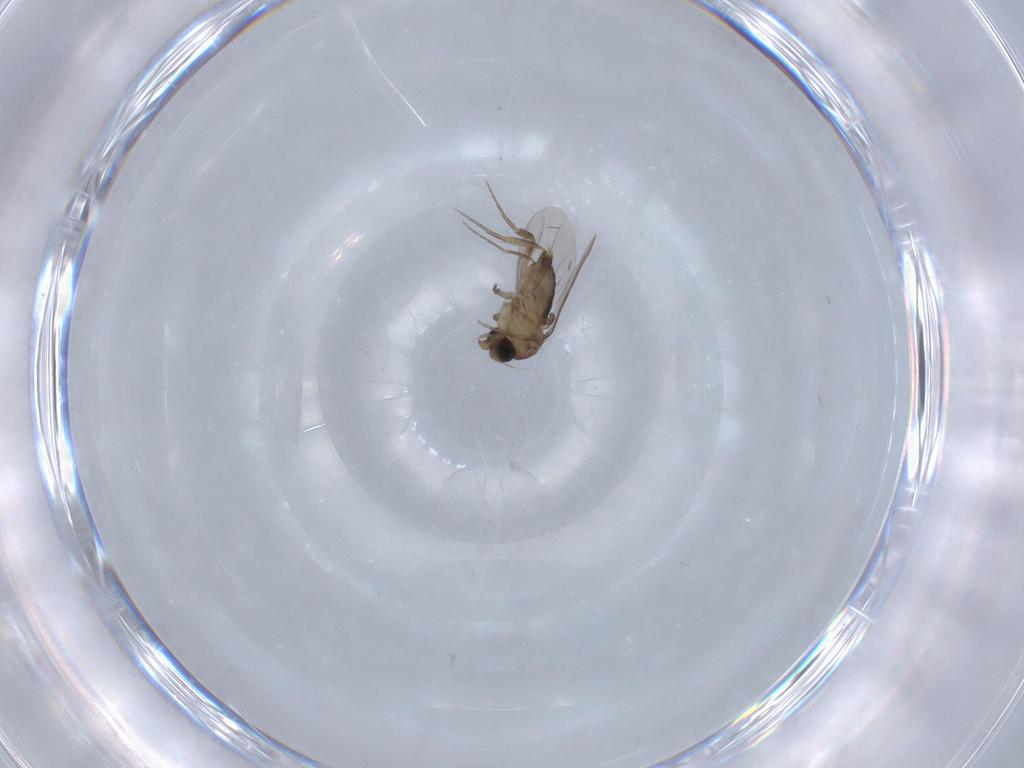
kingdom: Animalia
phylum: Arthropoda
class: Insecta
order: Diptera
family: Phoridae
